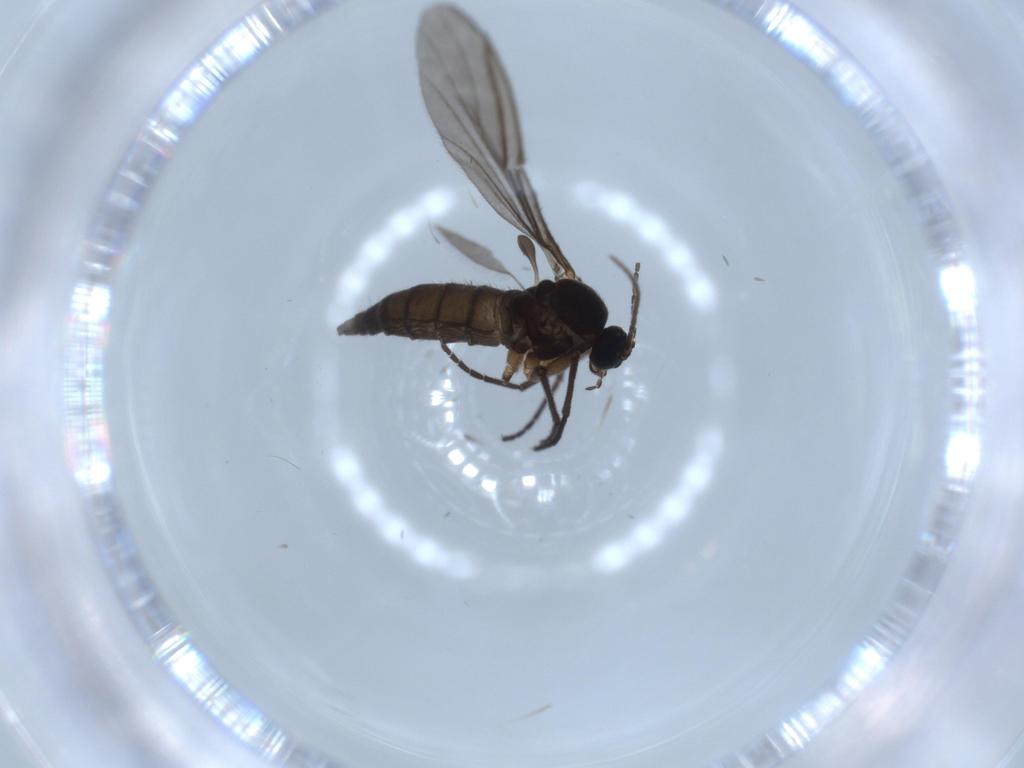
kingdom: Animalia
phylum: Arthropoda
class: Insecta
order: Diptera
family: Sciaridae
